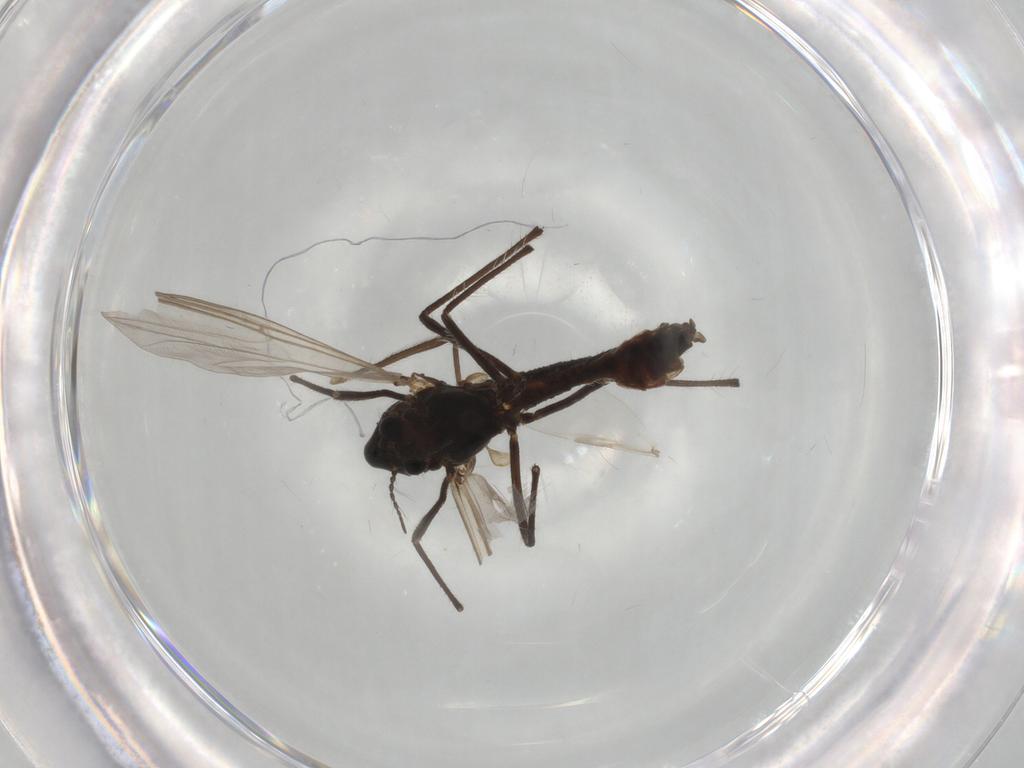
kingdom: Animalia
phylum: Arthropoda
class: Insecta
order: Diptera
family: Chironomidae
